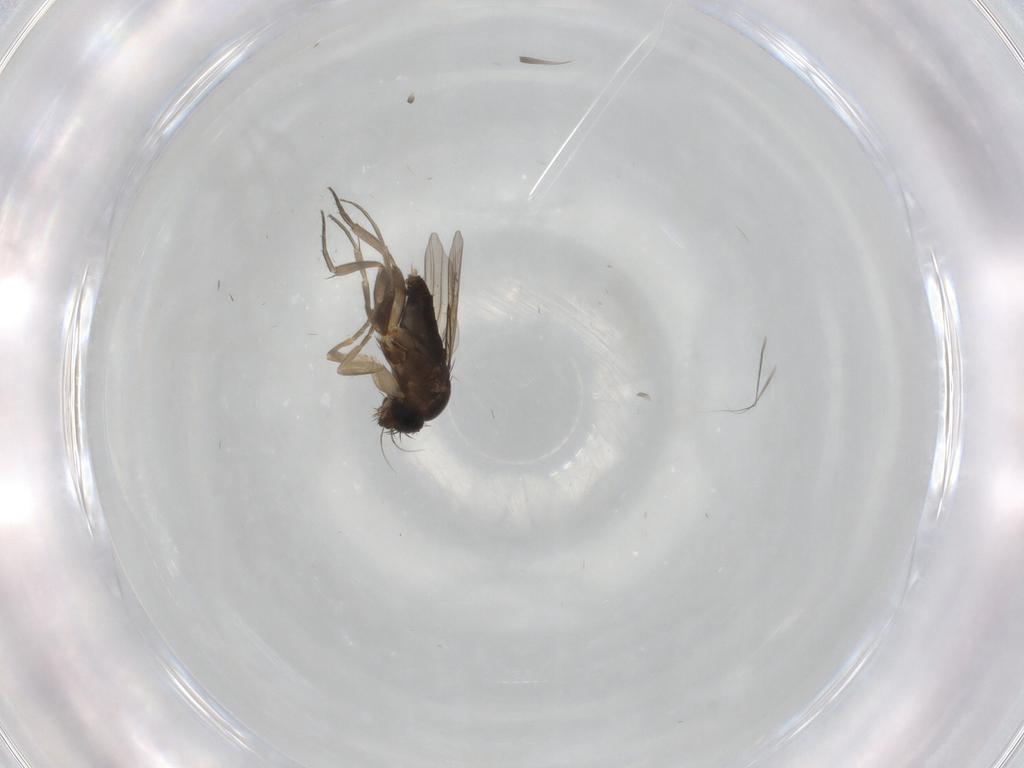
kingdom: Animalia
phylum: Arthropoda
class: Insecta
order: Diptera
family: Phoridae
